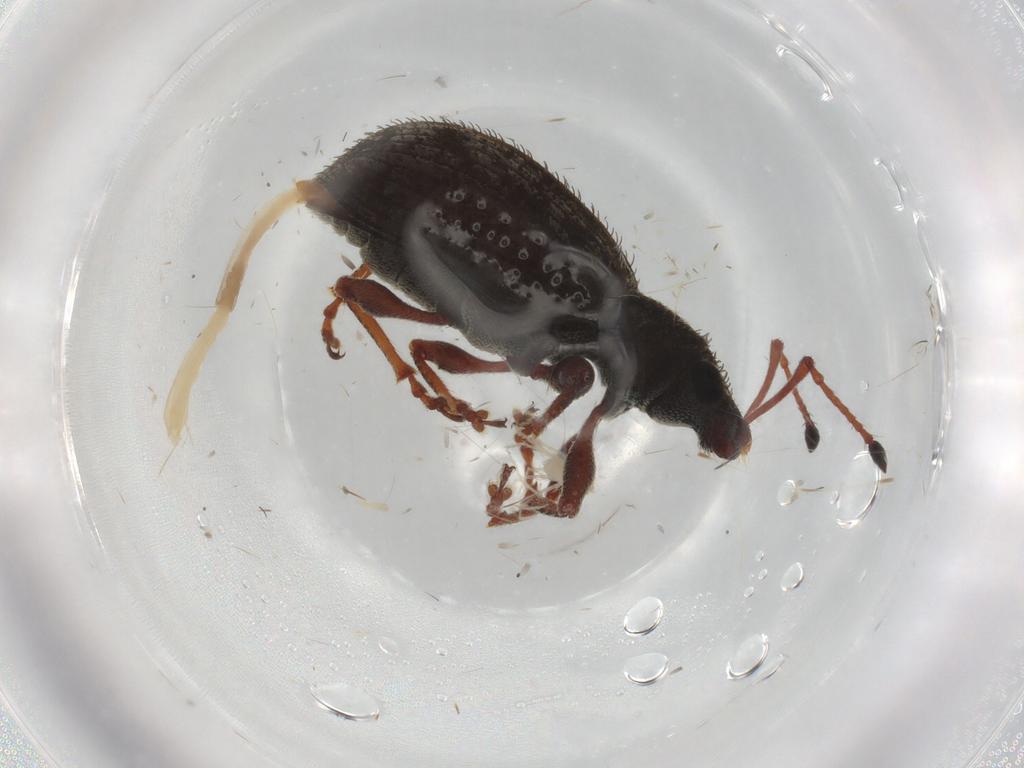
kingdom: Animalia
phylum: Arthropoda
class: Insecta
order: Coleoptera
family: Curculionidae
